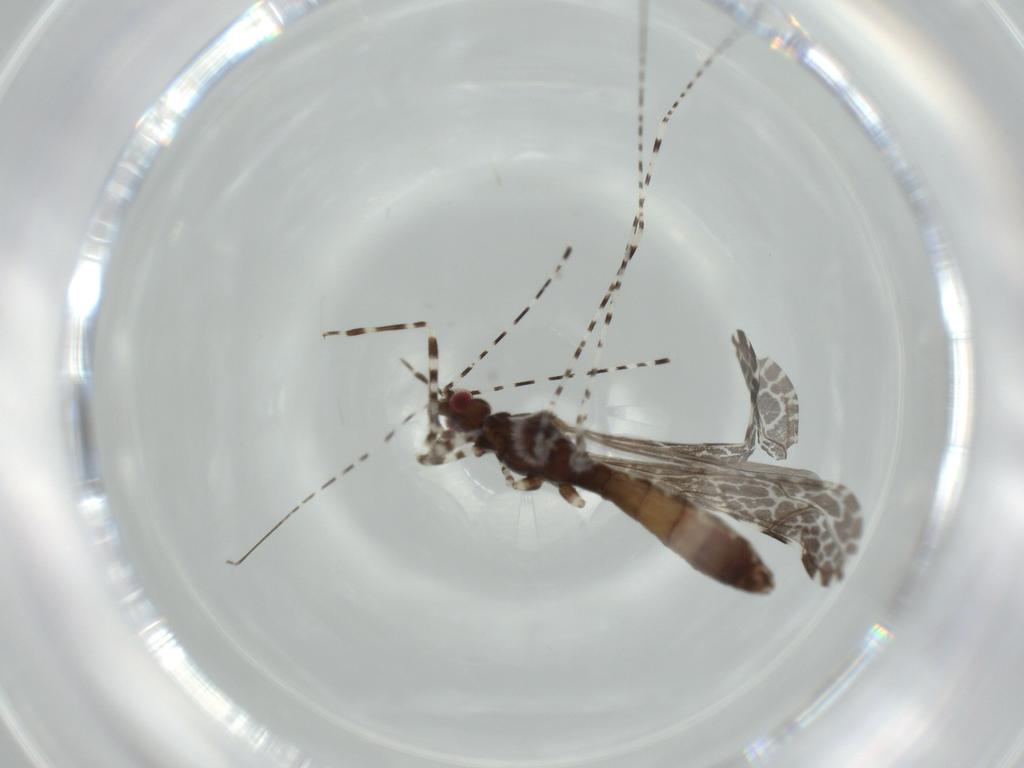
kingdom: Animalia
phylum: Arthropoda
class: Insecta
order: Hemiptera
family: Reduviidae
